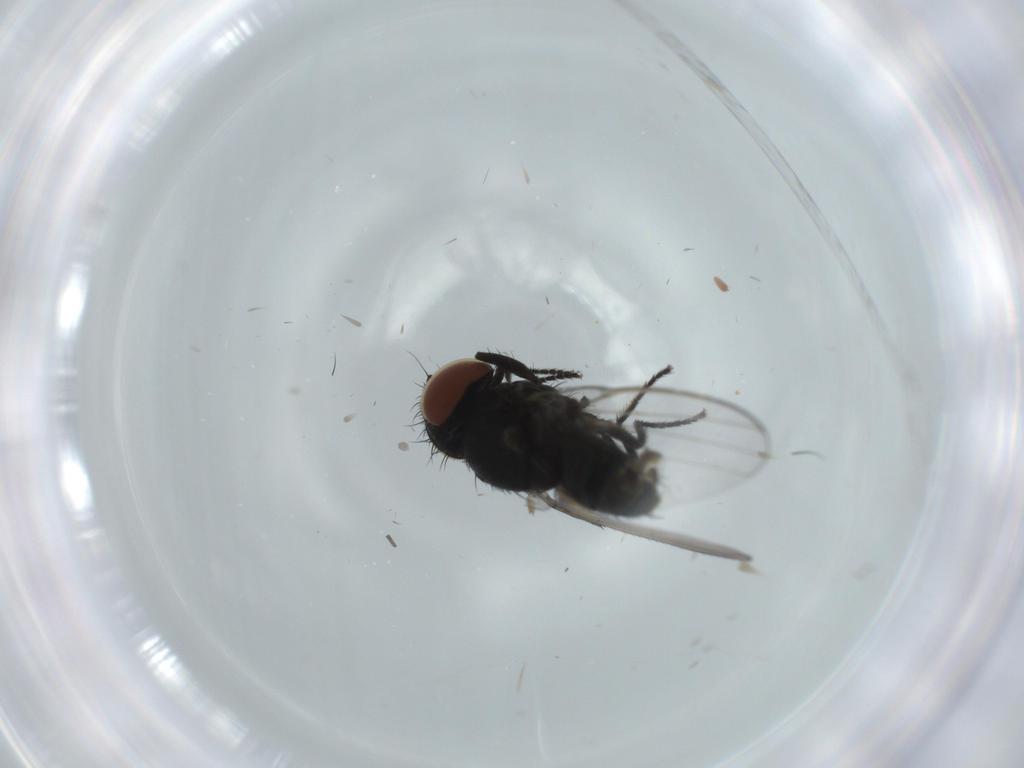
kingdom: Animalia
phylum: Arthropoda
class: Insecta
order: Diptera
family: Milichiidae
